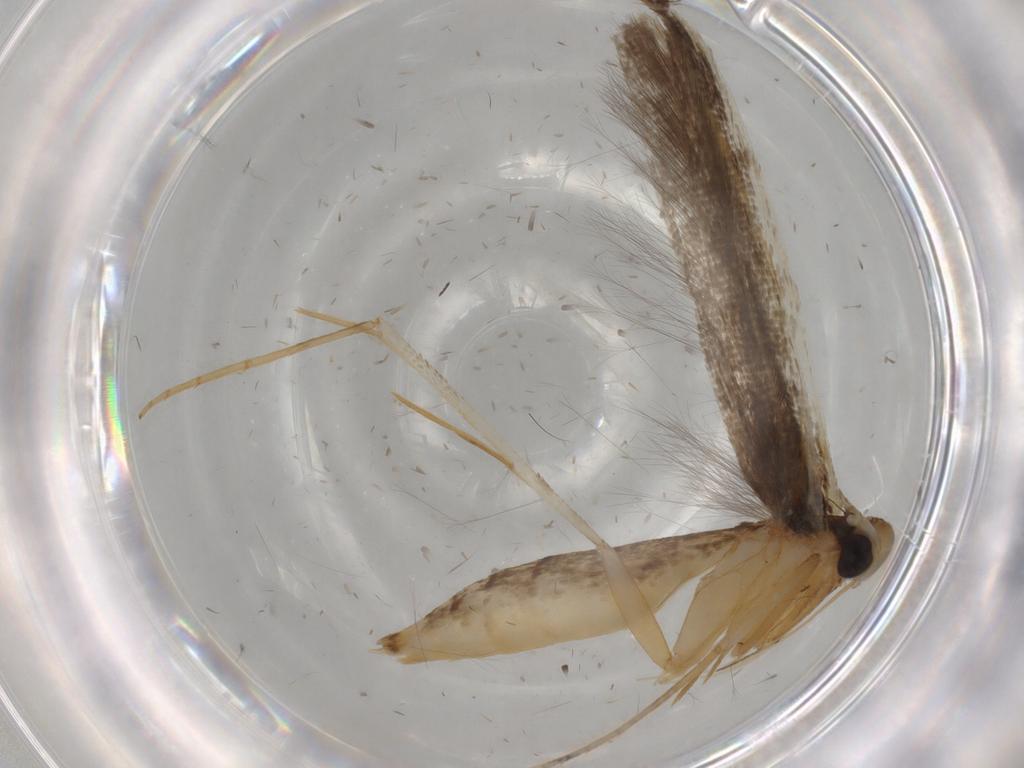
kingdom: Animalia
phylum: Arthropoda
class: Insecta
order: Lepidoptera
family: Pterolonchidae
